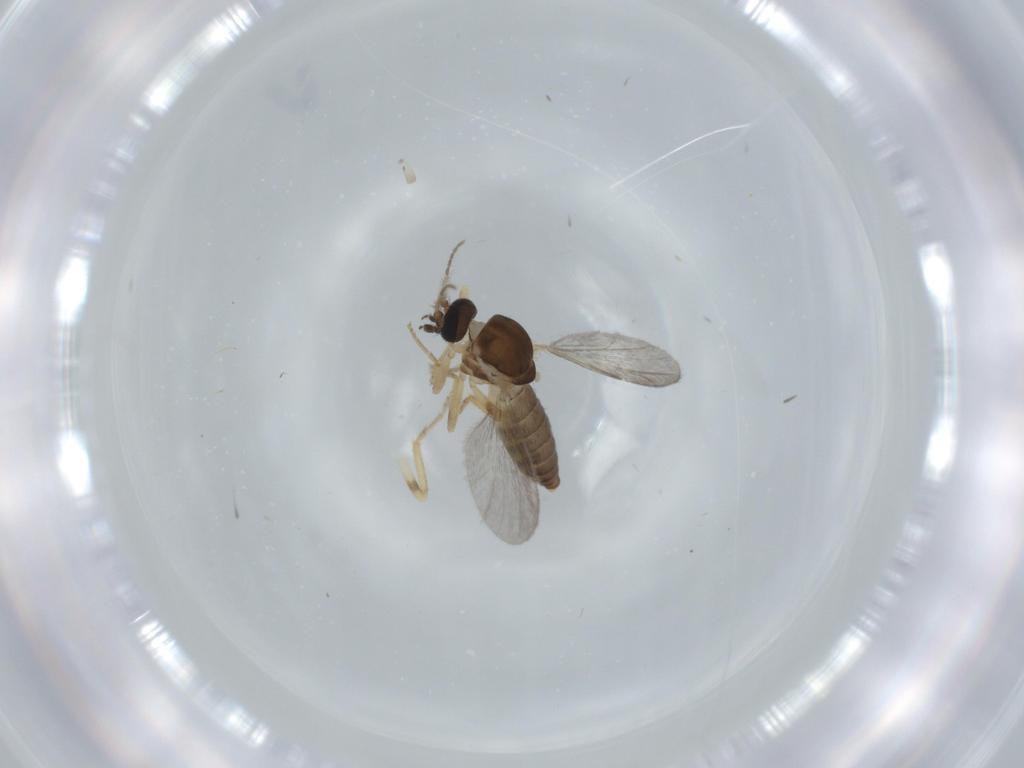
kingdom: Animalia
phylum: Arthropoda
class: Insecta
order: Diptera
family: Ceratopogonidae
